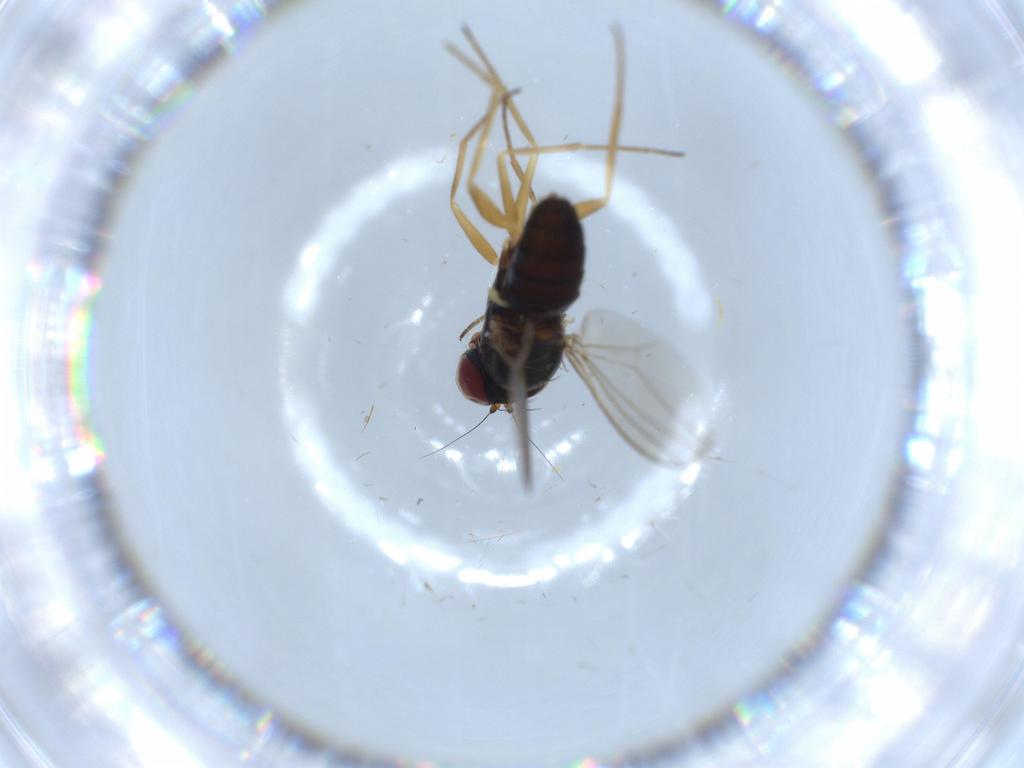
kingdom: Animalia
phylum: Arthropoda
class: Insecta
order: Diptera
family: Dolichopodidae
